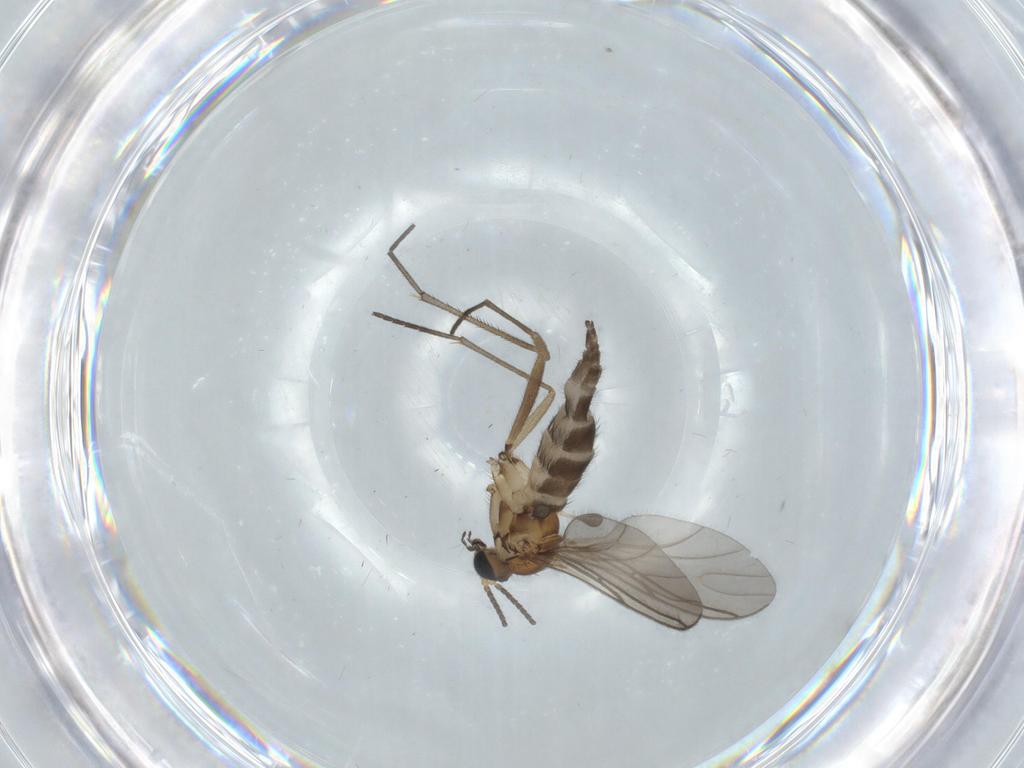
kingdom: Animalia
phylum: Arthropoda
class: Insecta
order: Diptera
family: Sciaridae
